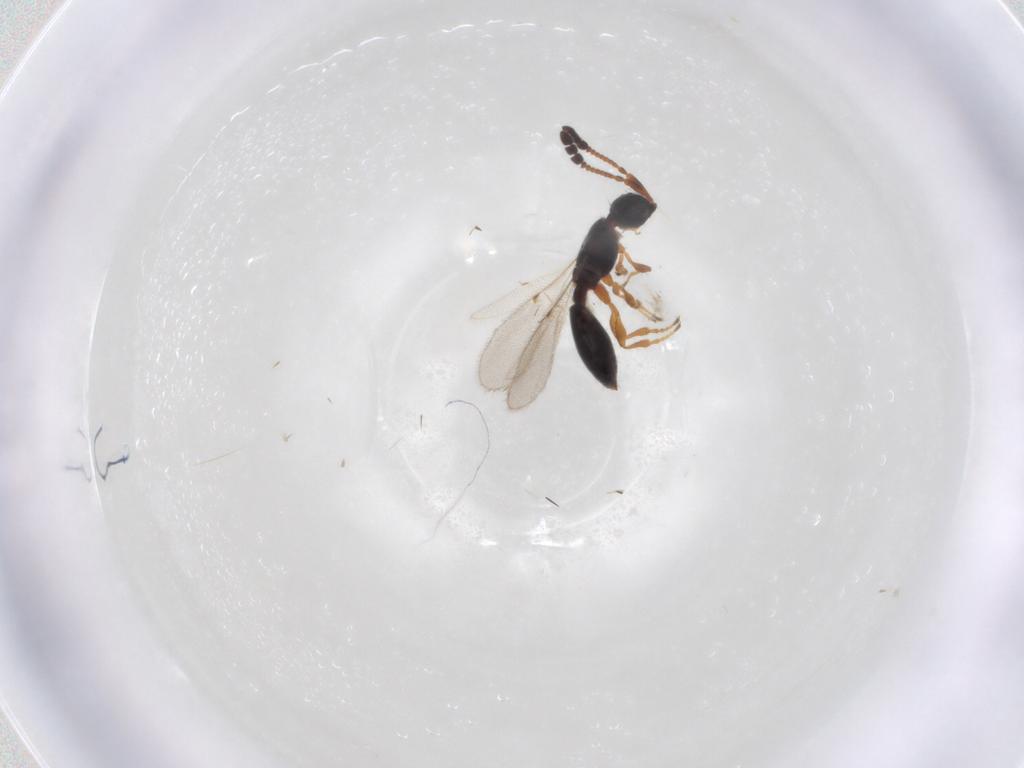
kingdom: Animalia
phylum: Arthropoda
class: Insecta
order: Hymenoptera
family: Diapriidae
